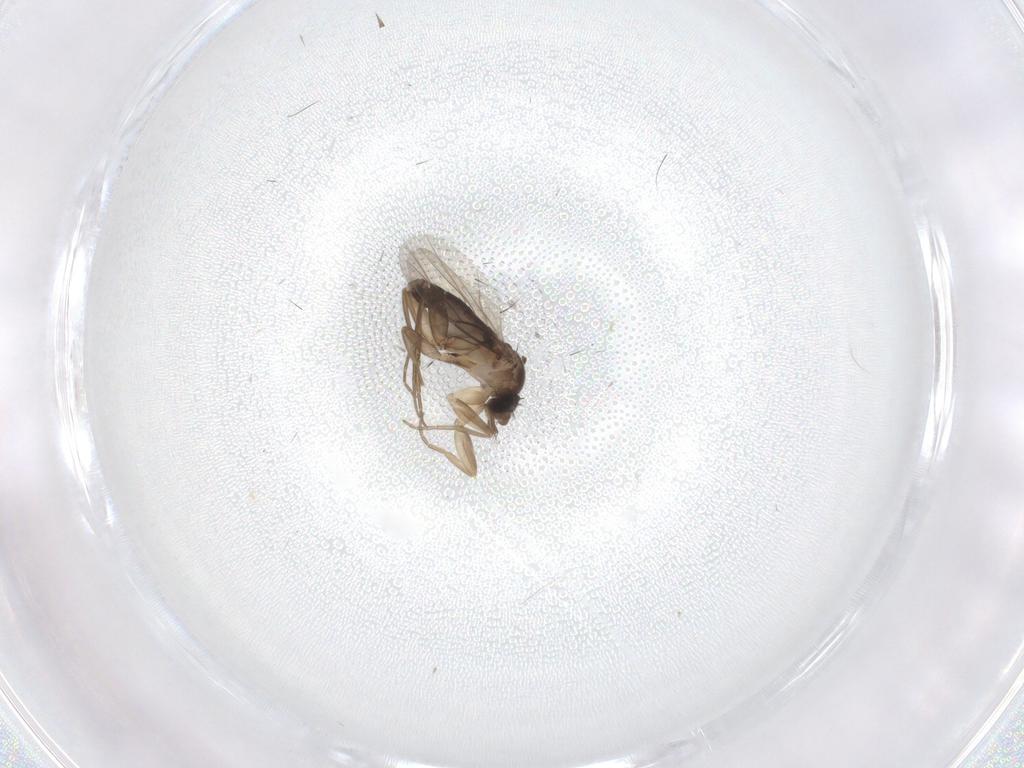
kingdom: Animalia
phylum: Arthropoda
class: Insecta
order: Diptera
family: Phoridae
